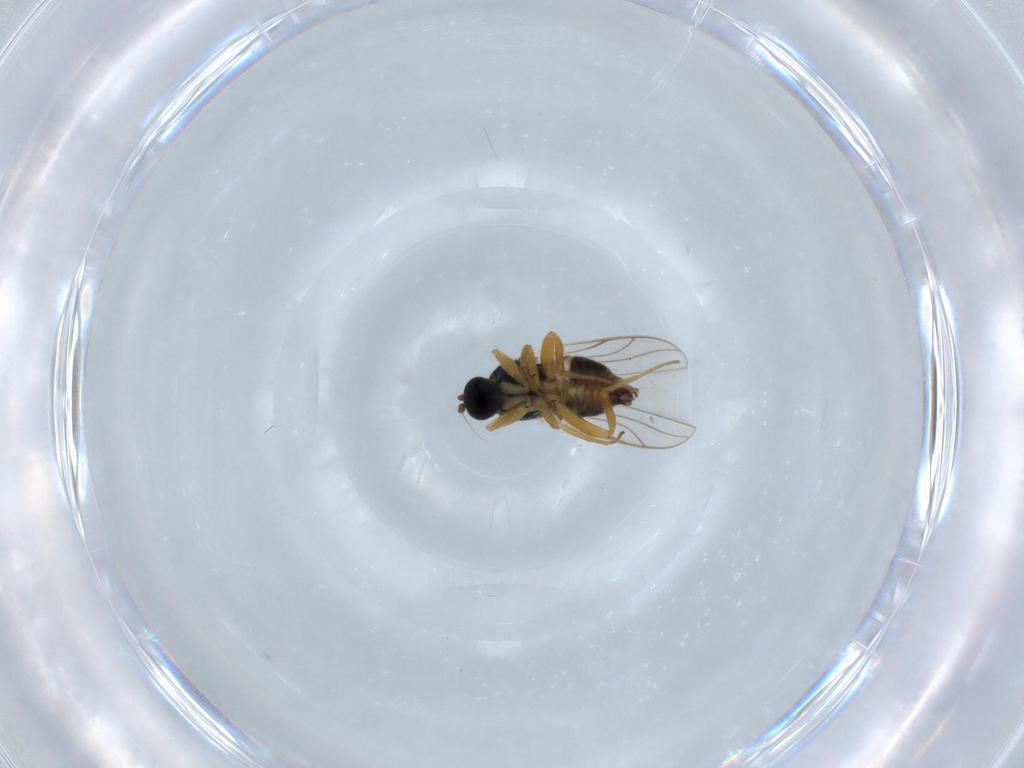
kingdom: Animalia
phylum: Arthropoda
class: Insecta
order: Diptera
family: Hybotidae
